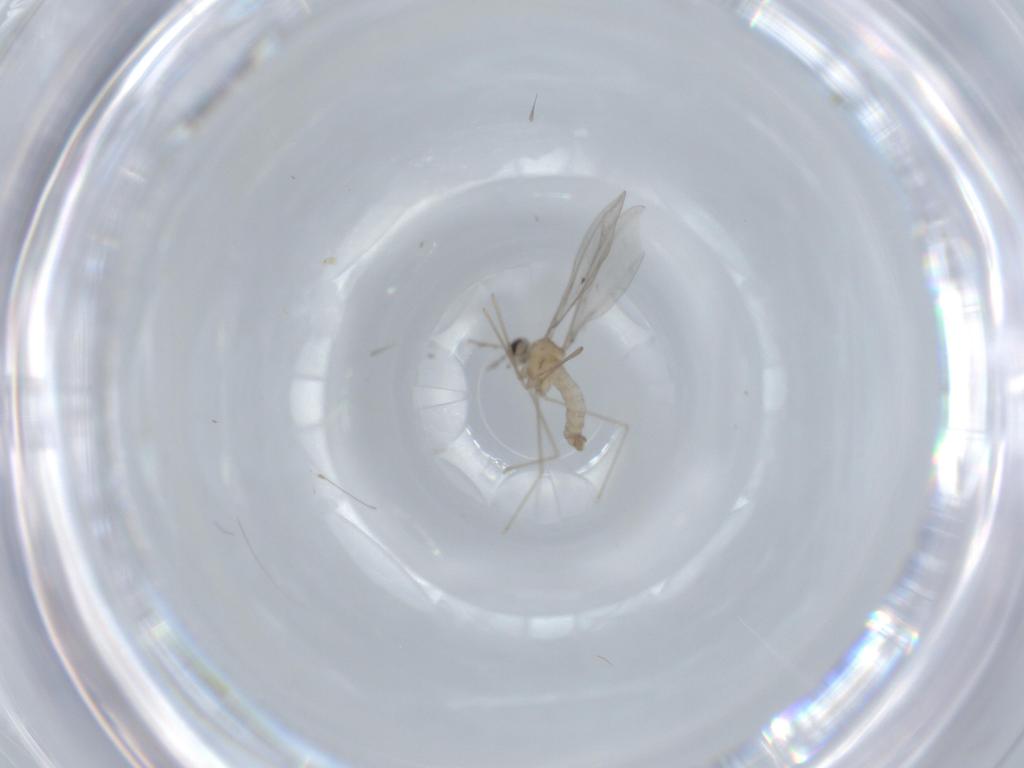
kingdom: Animalia
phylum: Arthropoda
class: Insecta
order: Diptera
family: Cecidomyiidae
